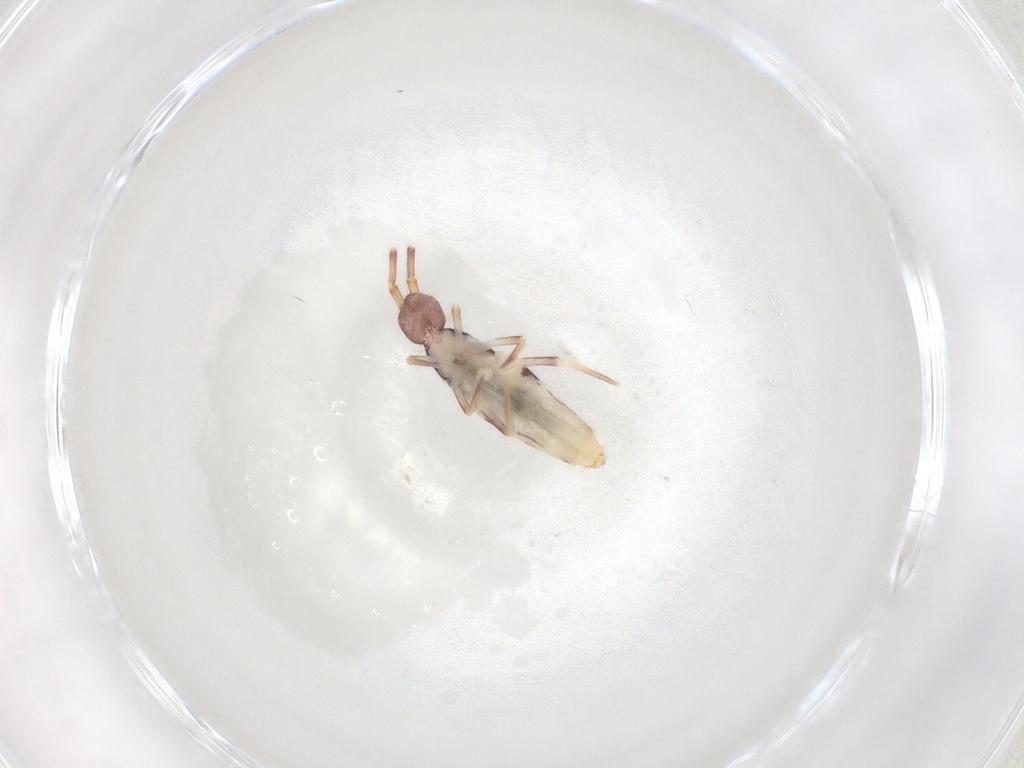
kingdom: Animalia
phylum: Arthropoda
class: Collembola
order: Entomobryomorpha
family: Entomobryidae
